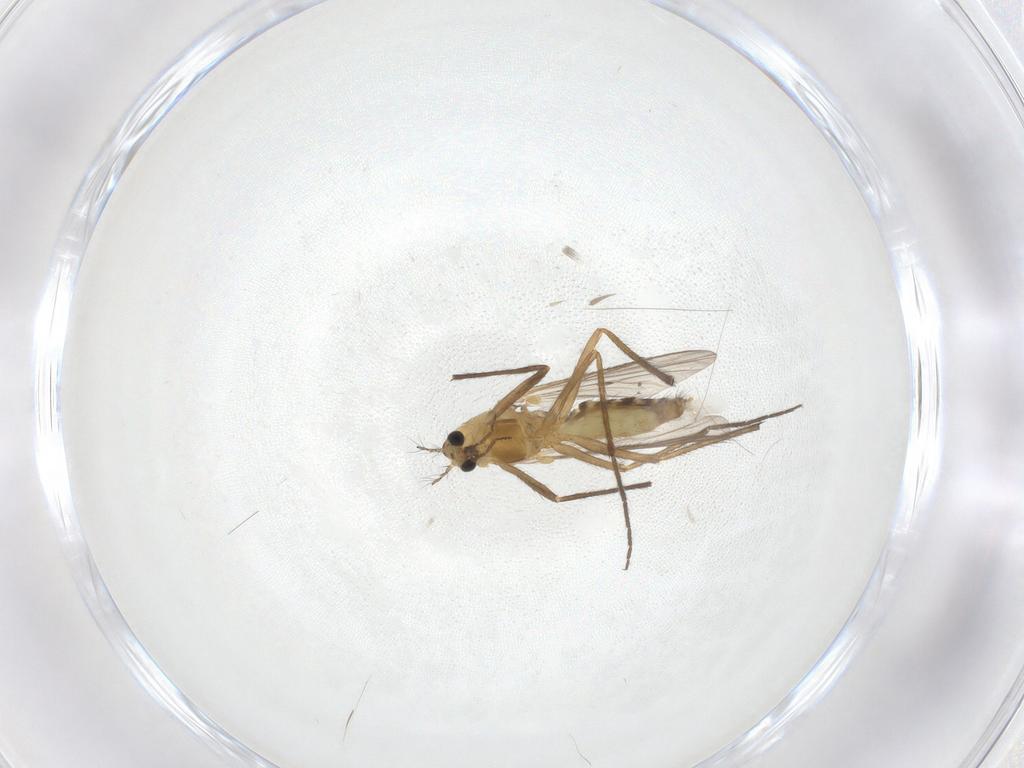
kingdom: Animalia
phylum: Arthropoda
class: Insecta
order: Diptera
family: Chironomidae
